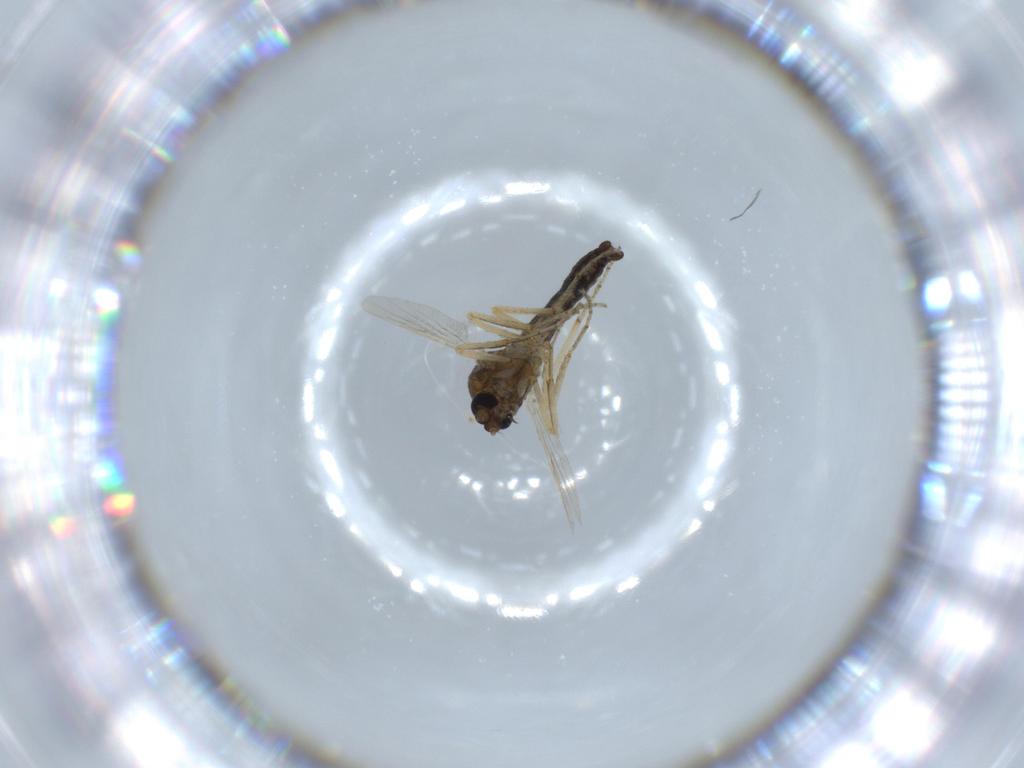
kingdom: Animalia
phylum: Arthropoda
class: Insecta
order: Diptera
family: Ceratopogonidae
